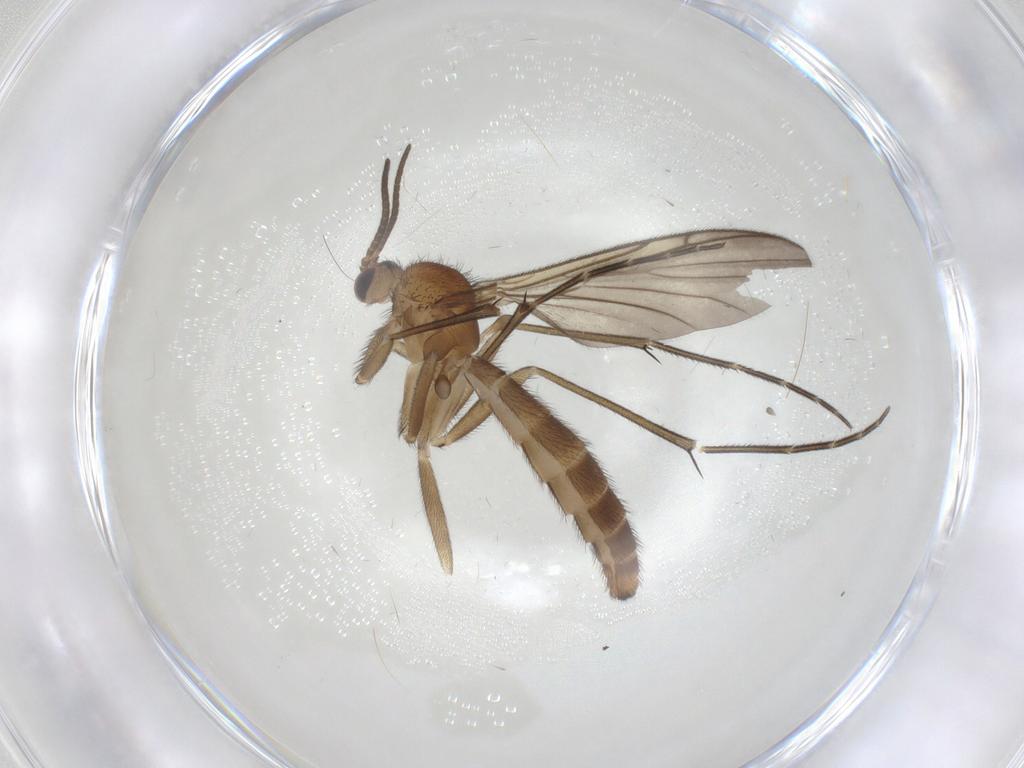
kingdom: Animalia
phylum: Arthropoda
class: Insecta
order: Diptera
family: Keroplatidae
